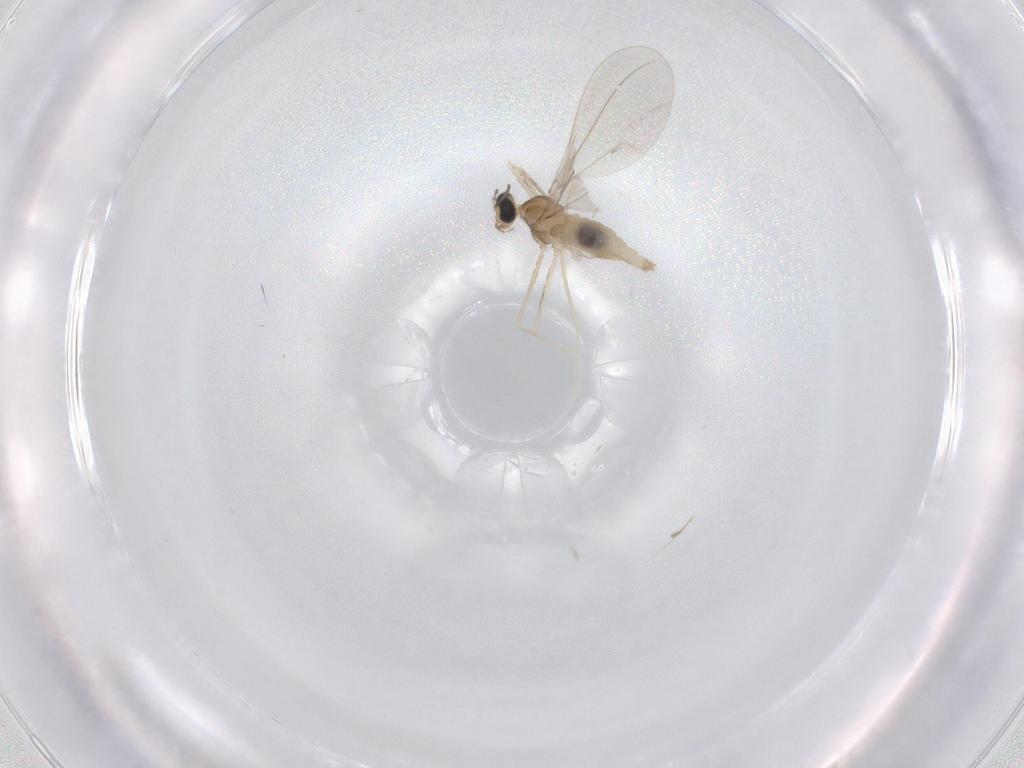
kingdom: Animalia
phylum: Arthropoda
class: Insecta
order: Diptera
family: Cecidomyiidae
